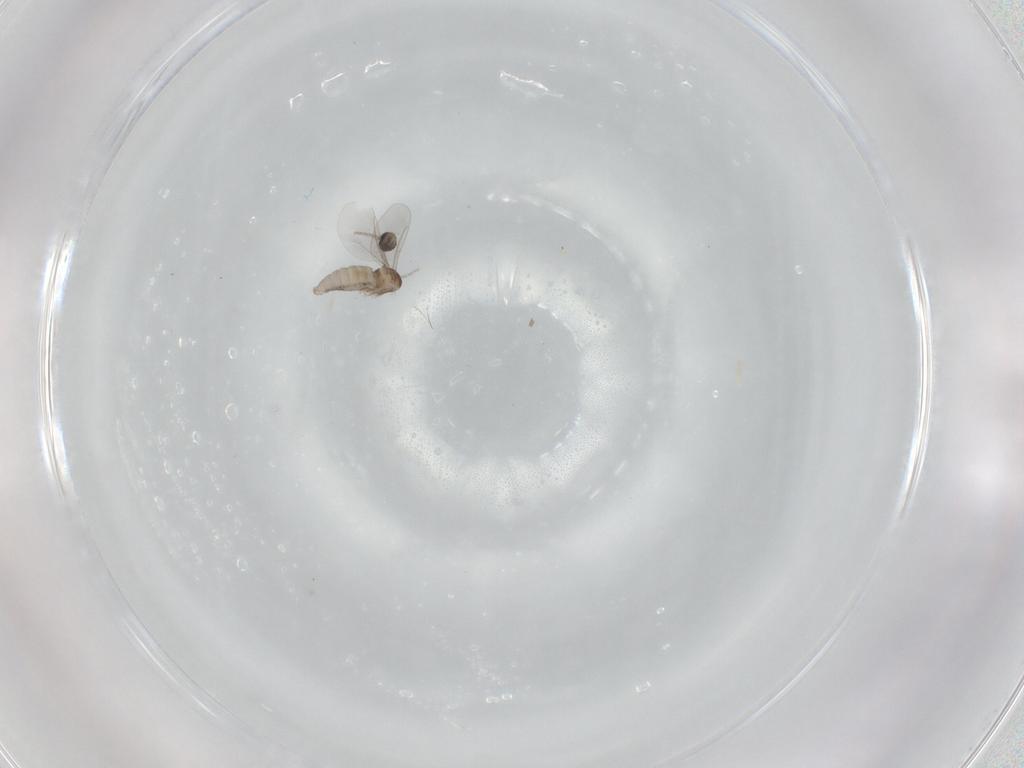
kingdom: Animalia
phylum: Arthropoda
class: Insecta
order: Diptera
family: Cecidomyiidae
